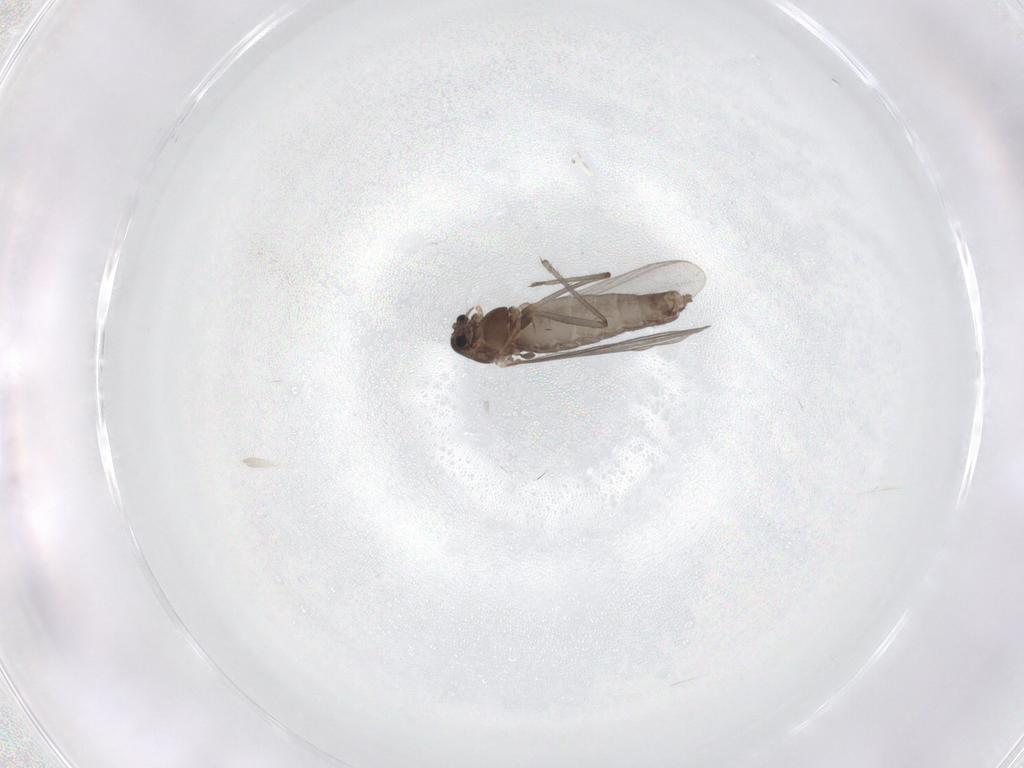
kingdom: Animalia
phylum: Arthropoda
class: Insecta
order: Diptera
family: Chironomidae
